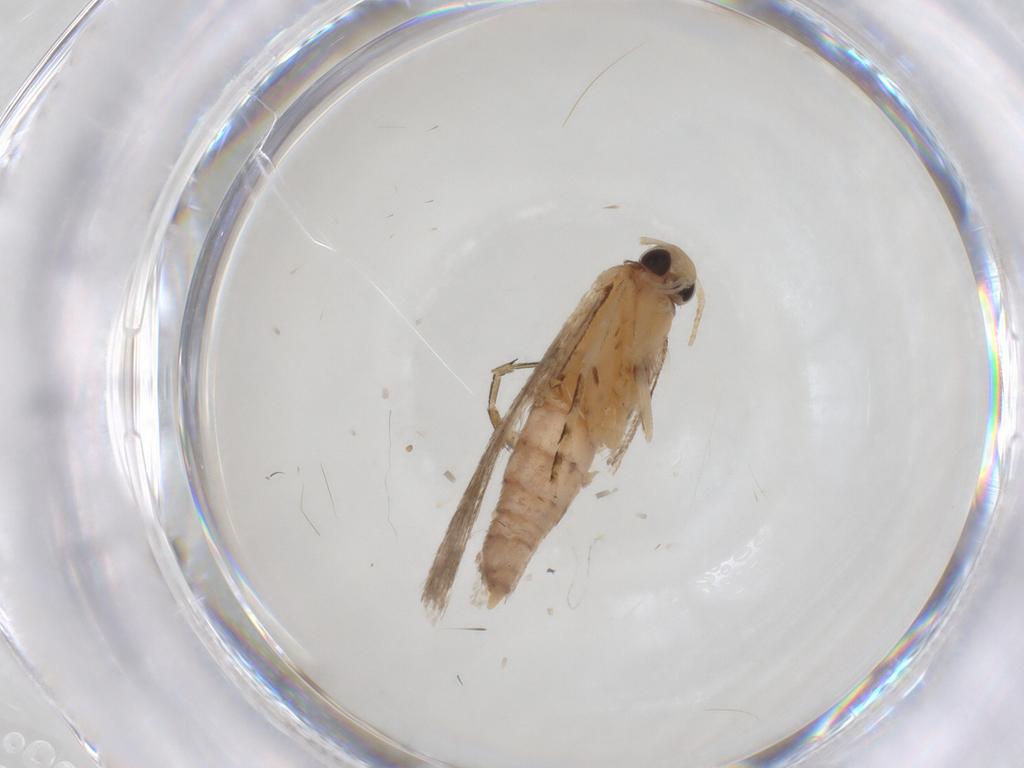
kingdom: Animalia
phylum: Arthropoda
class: Insecta
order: Lepidoptera
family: Gelechiidae
